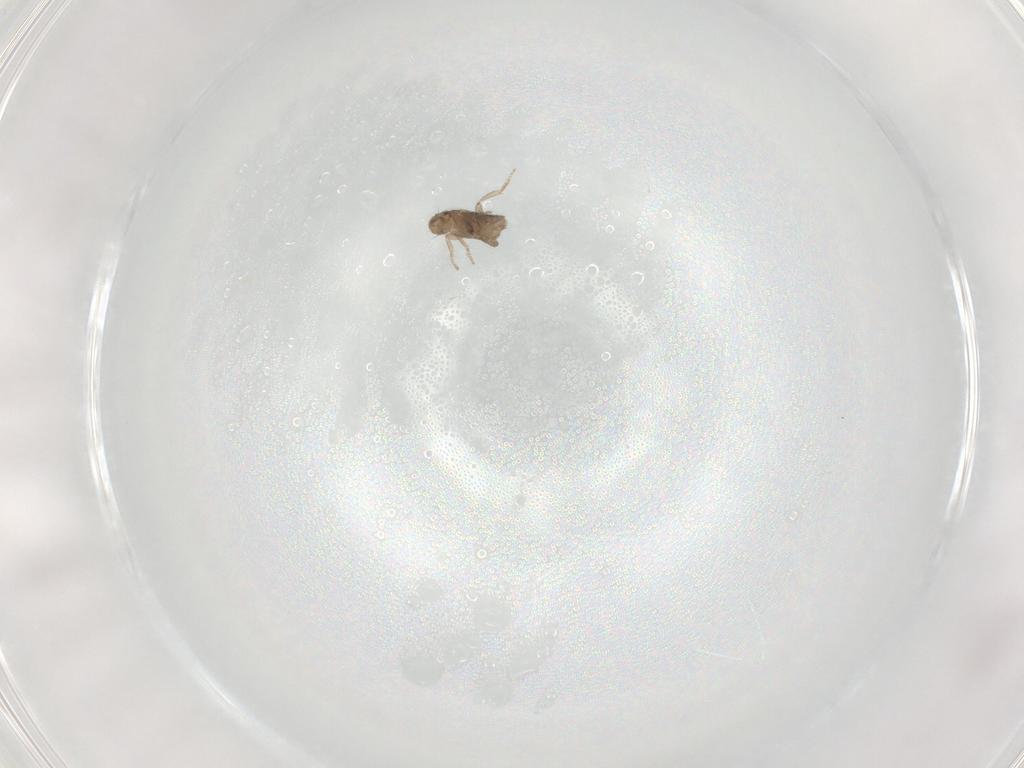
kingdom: Animalia
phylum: Arthropoda
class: Insecta
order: Diptera
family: Psychodidae
